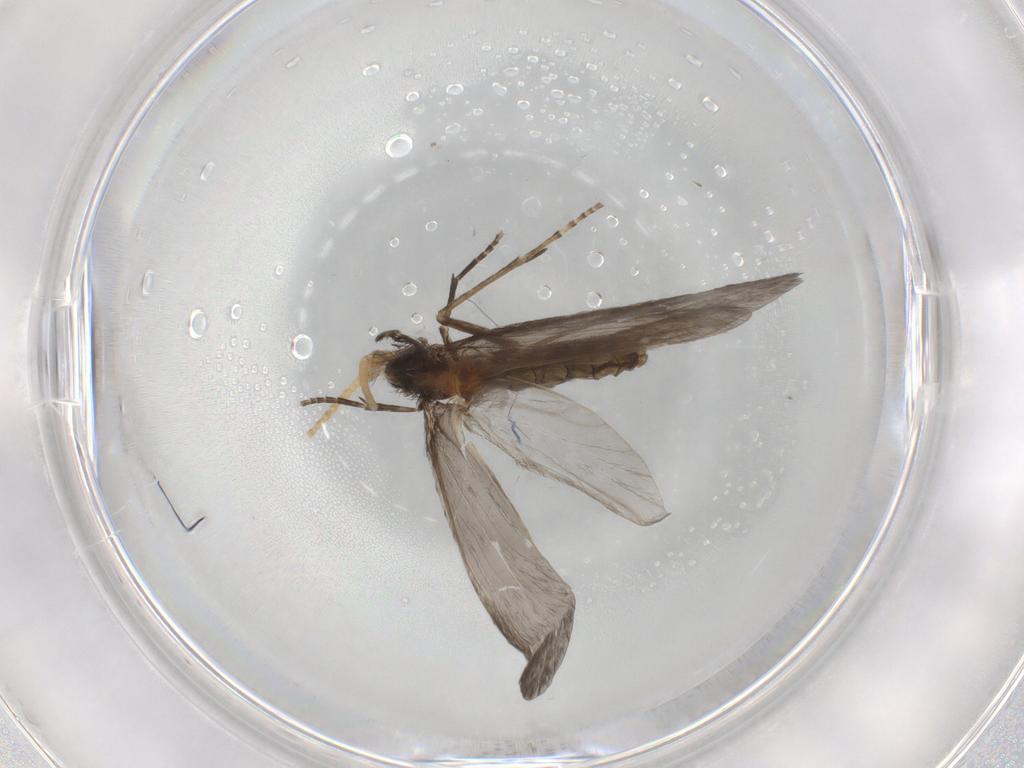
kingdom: Animalia
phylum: Arthropoda
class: Insecta
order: Trichoptera
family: Helicopsychidae
